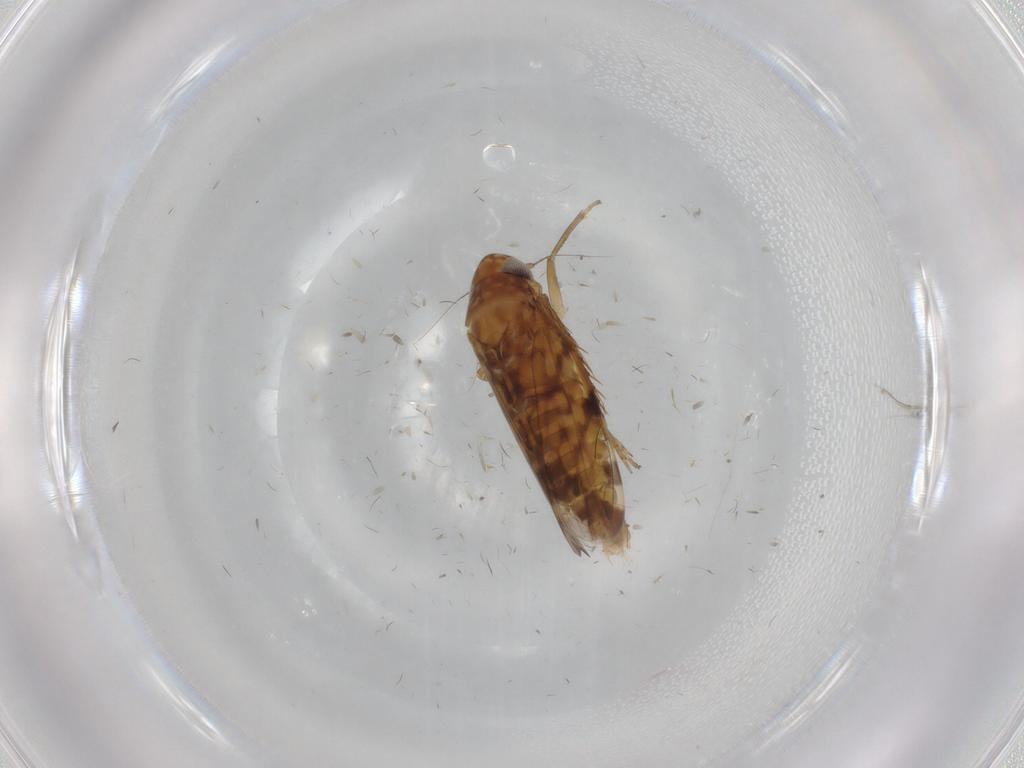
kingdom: Animalia
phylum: Arthropoda
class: Insecta
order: Hemiptera
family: Cicadellidae
